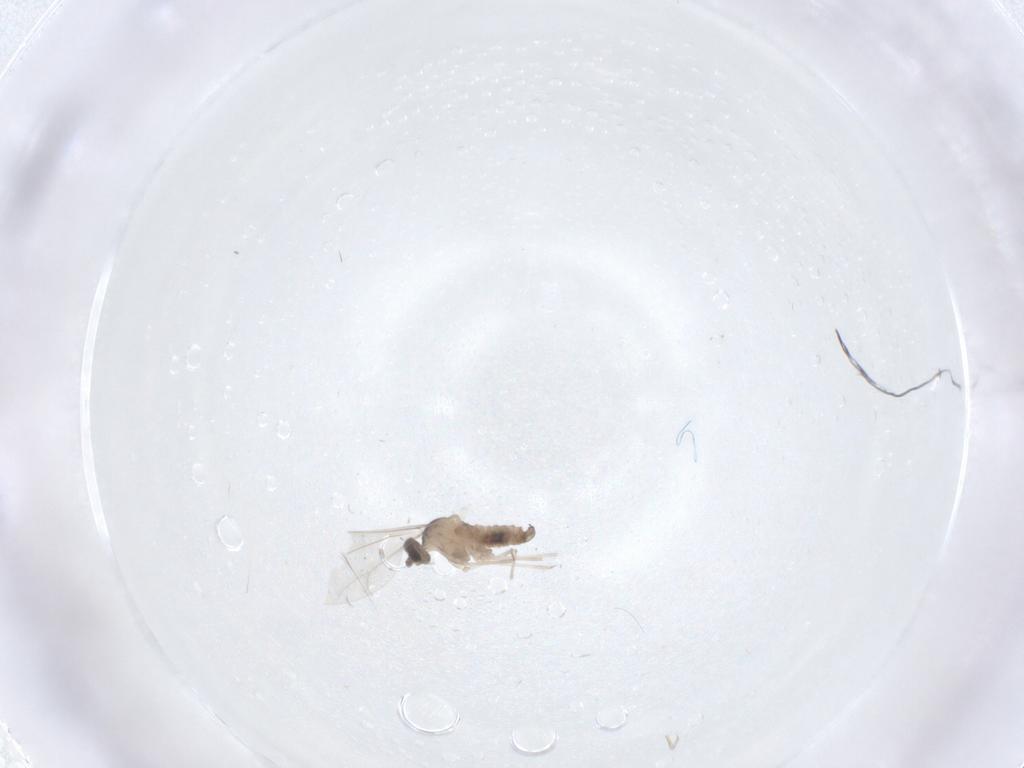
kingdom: Animalia
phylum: Arthropoda
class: Insecta
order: Diptera
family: Cecidomyiidae
